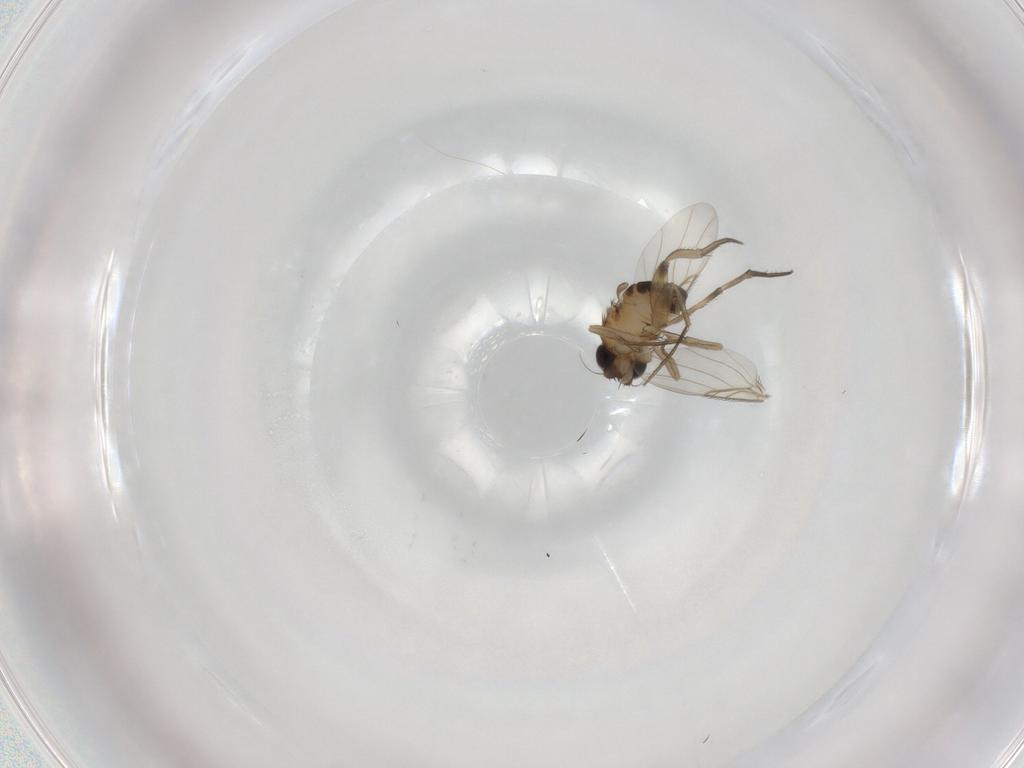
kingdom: Animalia
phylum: Arthropoda
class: Insecta
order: Diptera
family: Phoridae
